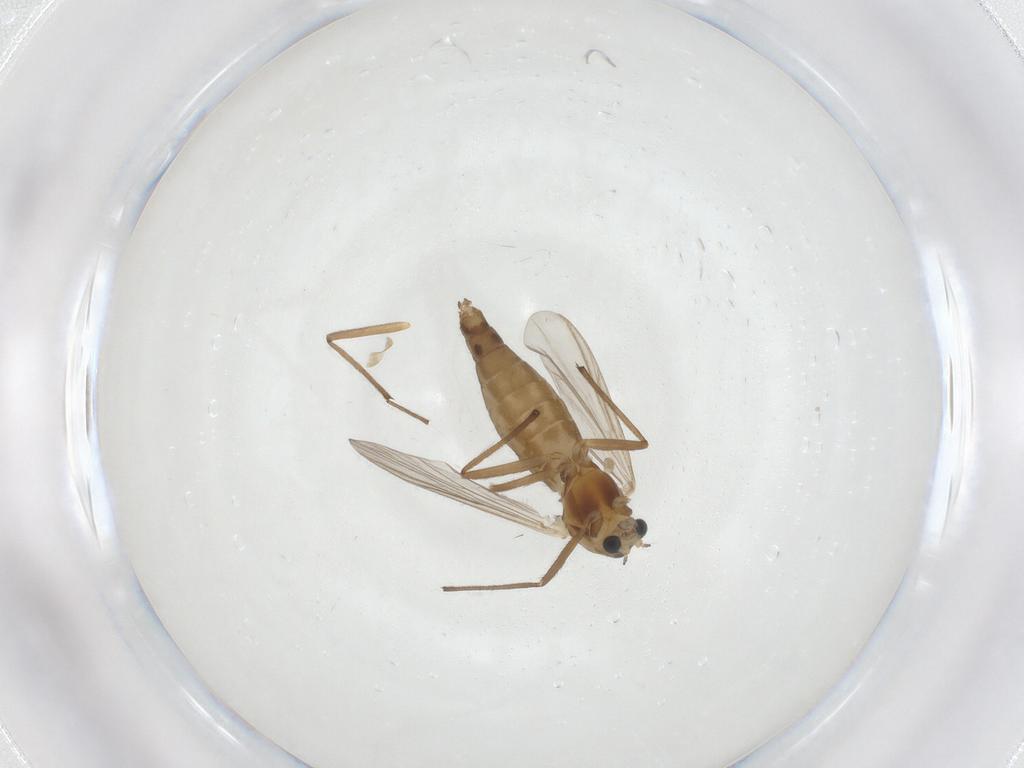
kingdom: Animalia
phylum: Arthropoda
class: Insecta
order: Diptera
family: Chironomidae
